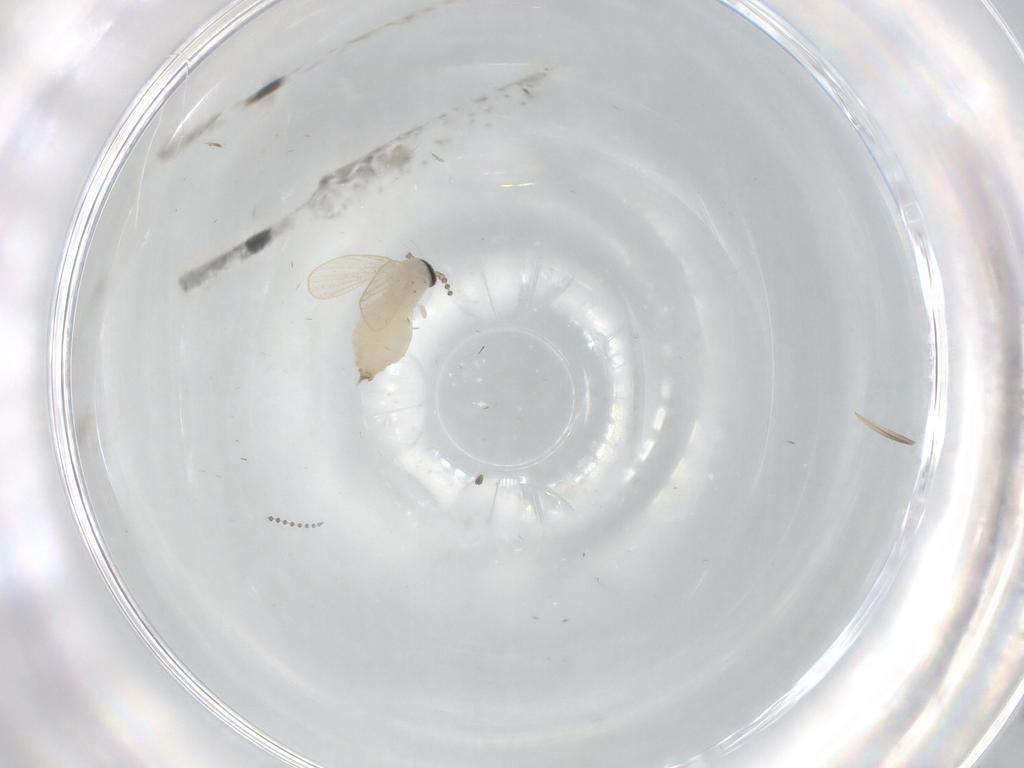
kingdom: Animalia
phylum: Arthropoda
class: Insecta
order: Diptera
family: Psychodidae
